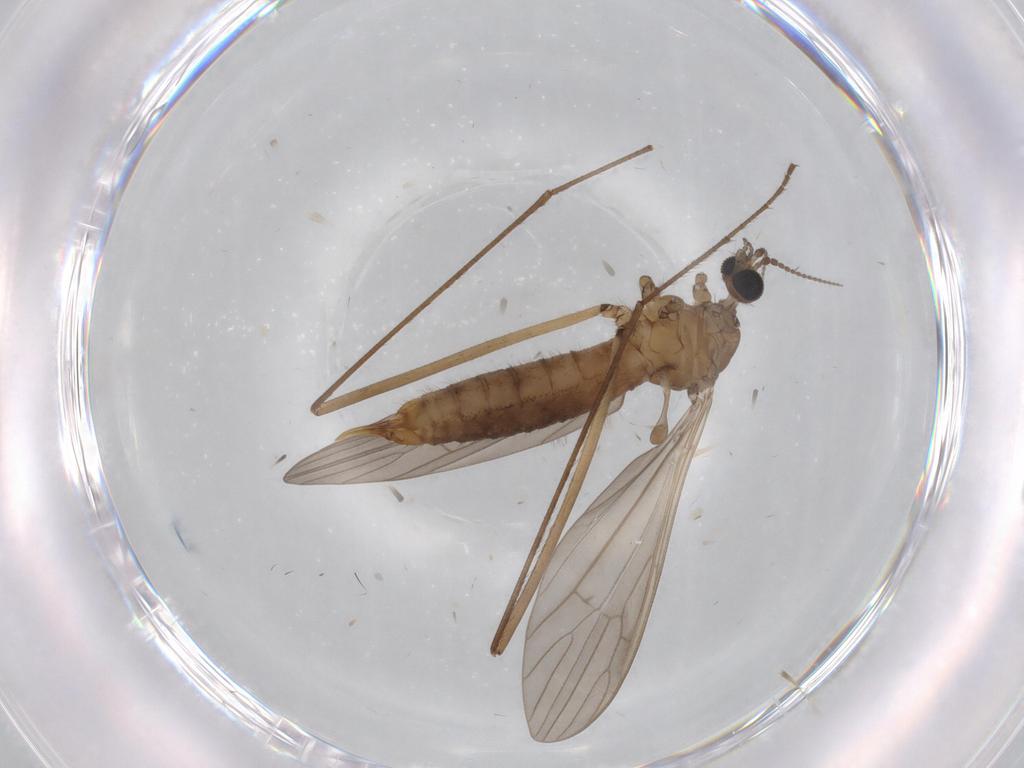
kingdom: Animalia
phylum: Arthropoda
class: Insecta
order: Diptera
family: Limoniidae
